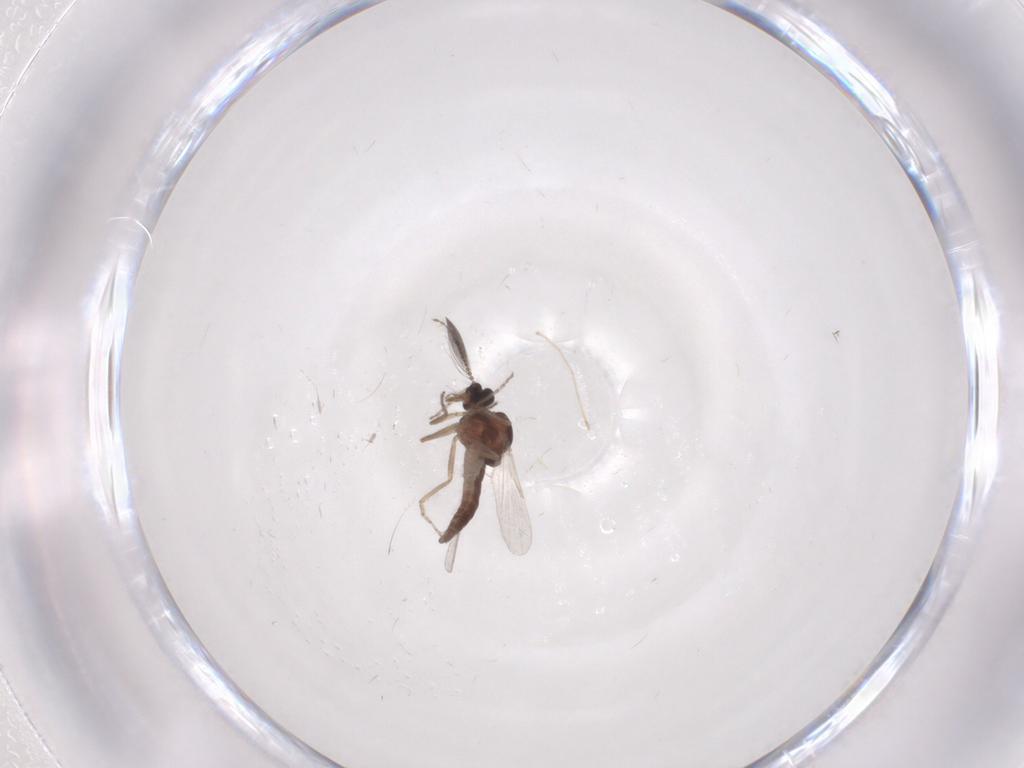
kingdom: Animalia
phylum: Arthropoda
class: Insecta
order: Diptera
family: Ceratopogonidae
